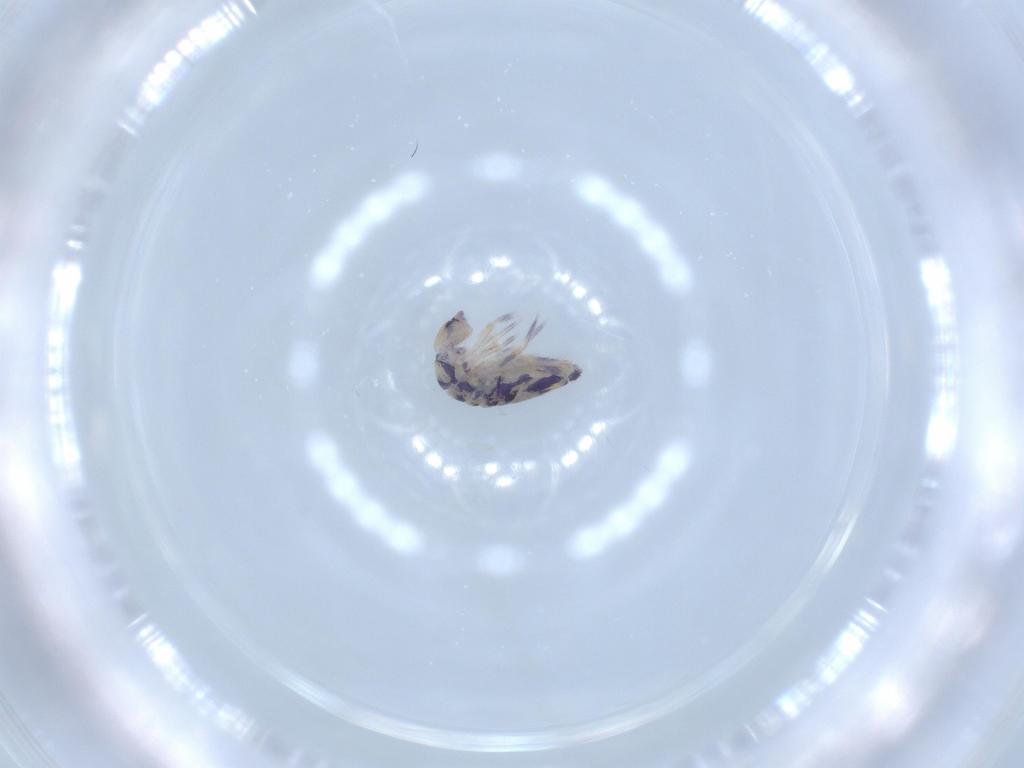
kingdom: Animalia
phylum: Arthropoda
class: Collembola
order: Entomobryomorpha
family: Entomobryidae
